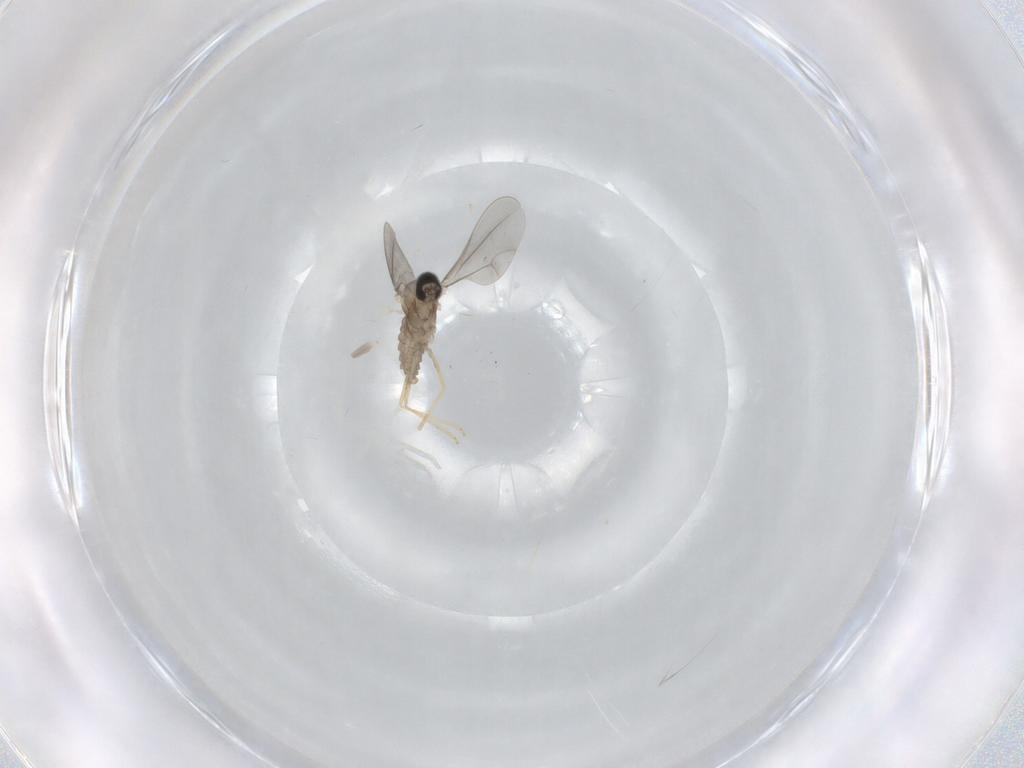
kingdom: Animalia
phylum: Arthropoda
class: Insecta
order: Diptera
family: Cecidomyiidae
